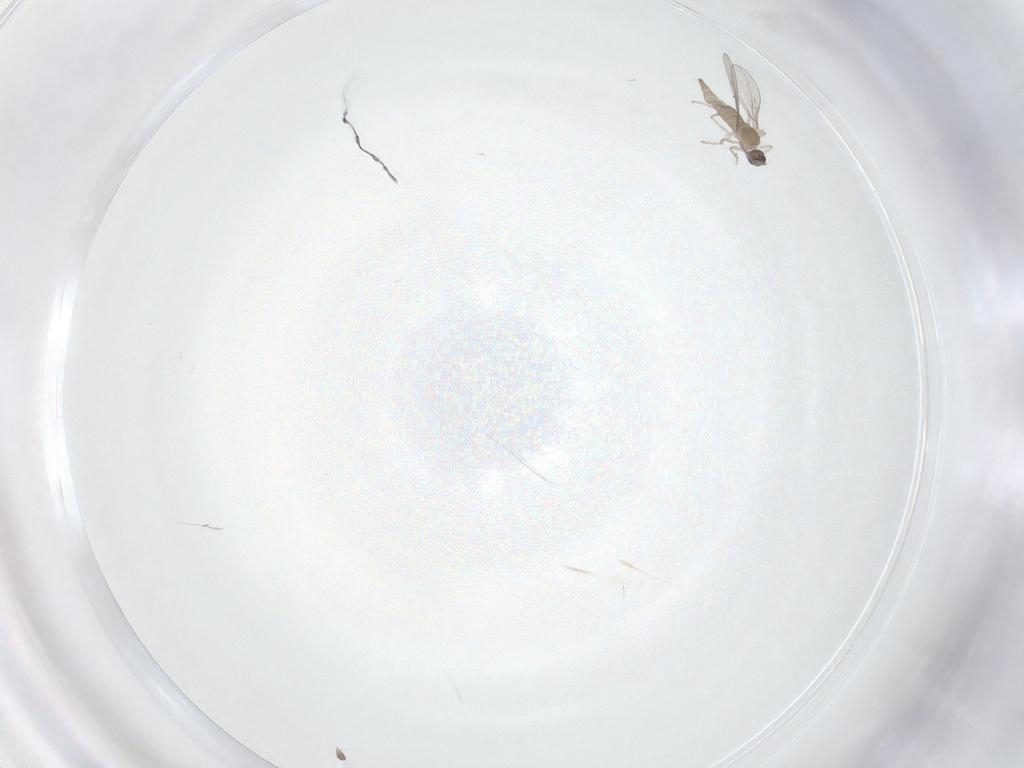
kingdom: Animalia
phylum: Arthropoda
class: Insecta
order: Diptera
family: Cecidomyiidae
